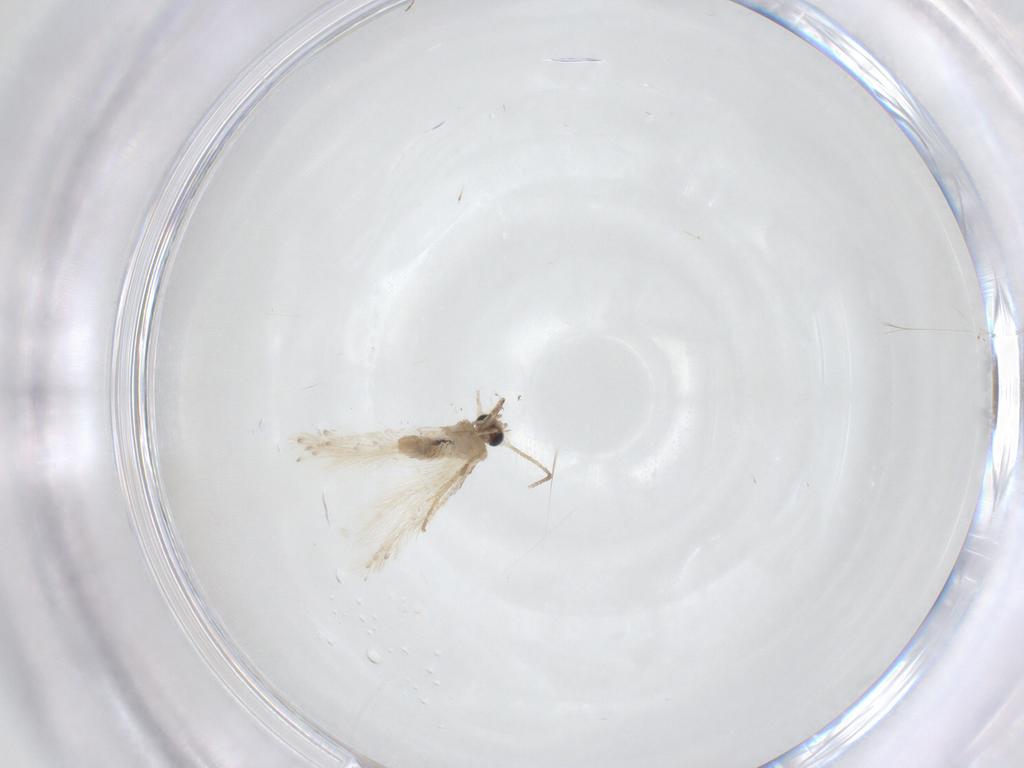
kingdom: Animalia
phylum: Arthropoda
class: Insecta
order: Lepidoptera
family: Nepticulidae
